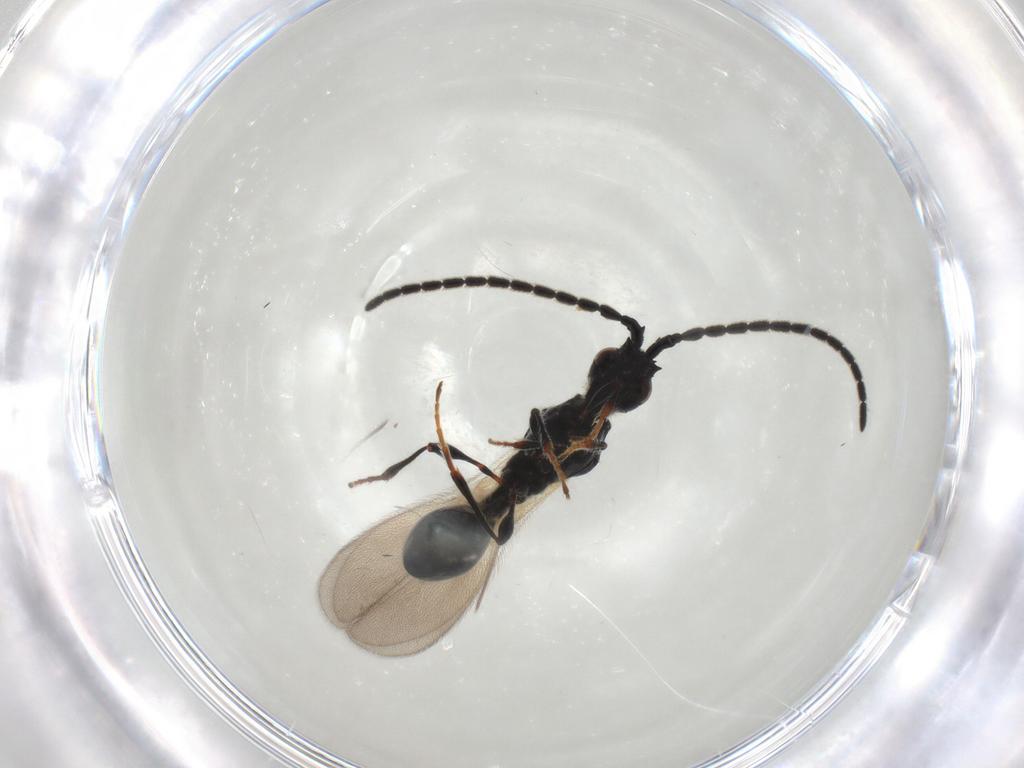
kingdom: Animalia
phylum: Arthropoda
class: Insecta
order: Hymenoptera
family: Diapriidae
